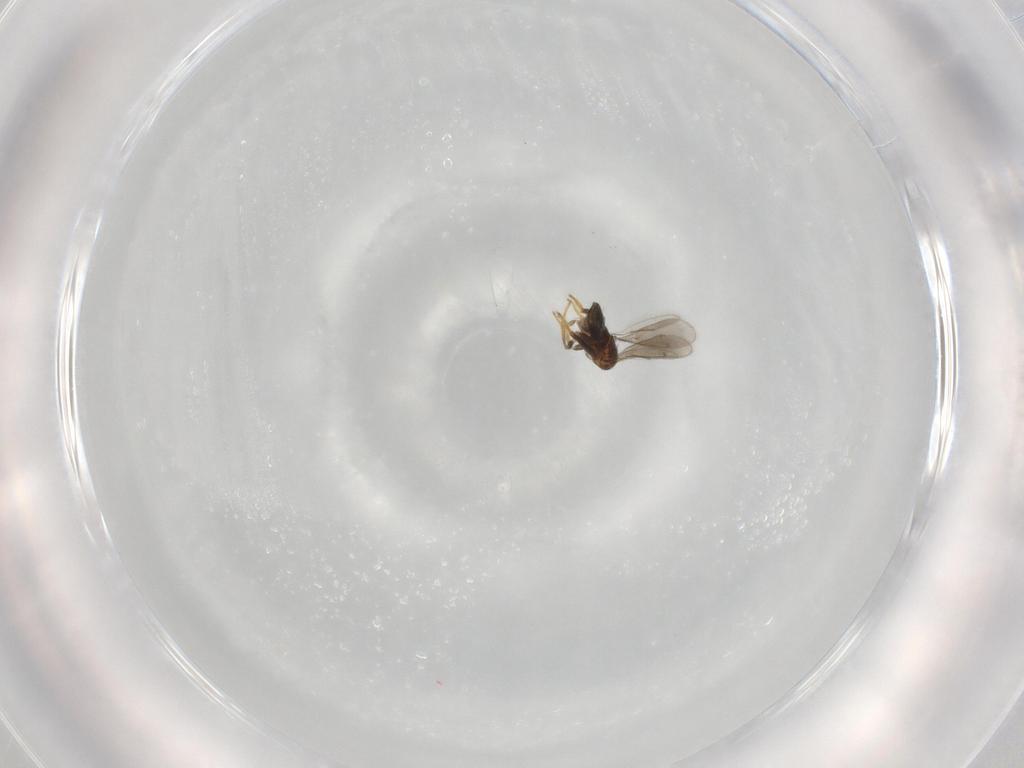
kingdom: Animalia
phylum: Arthropoda
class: Insecta
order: Hymenoptera
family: Aphelinidae
